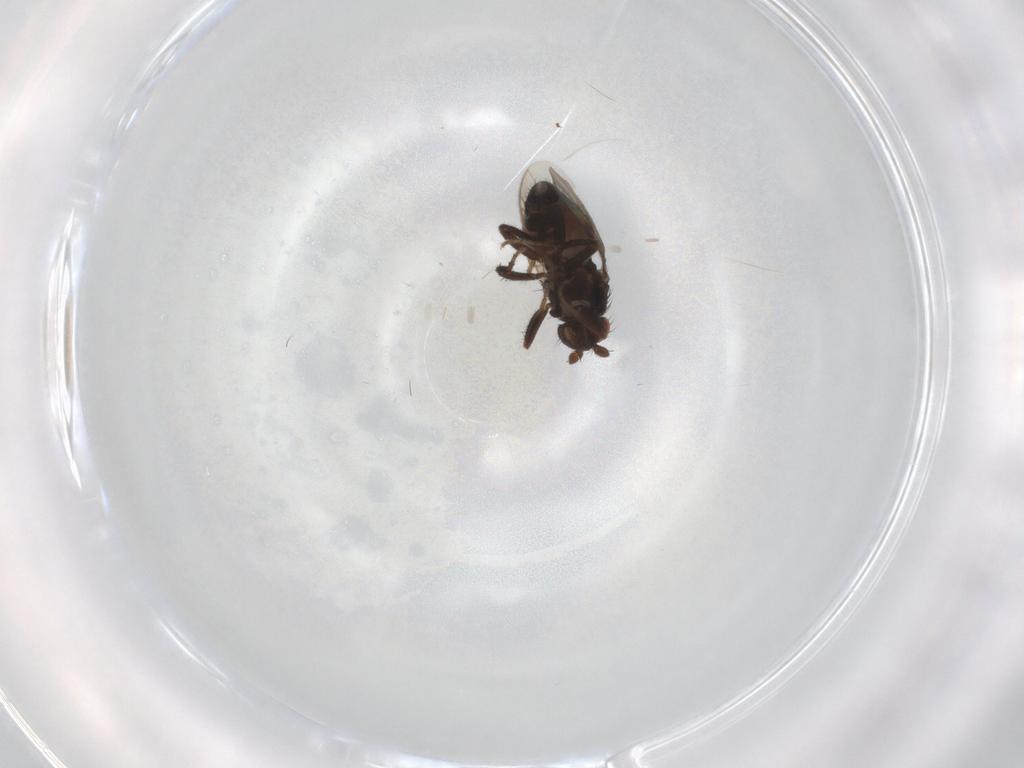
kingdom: Animalia
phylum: Arthropoda
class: Insecta
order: Diptera
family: Sphaeroceridae
